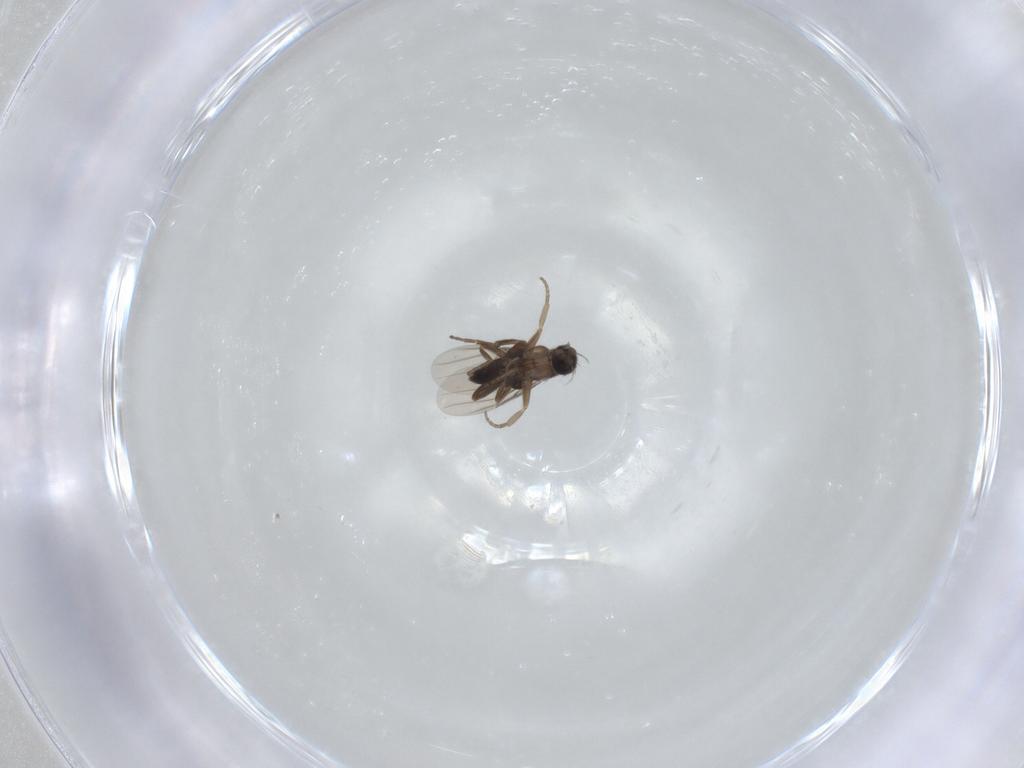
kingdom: Animalia
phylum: Arthropoda
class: Insecta
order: Diptera
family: Phoridae
